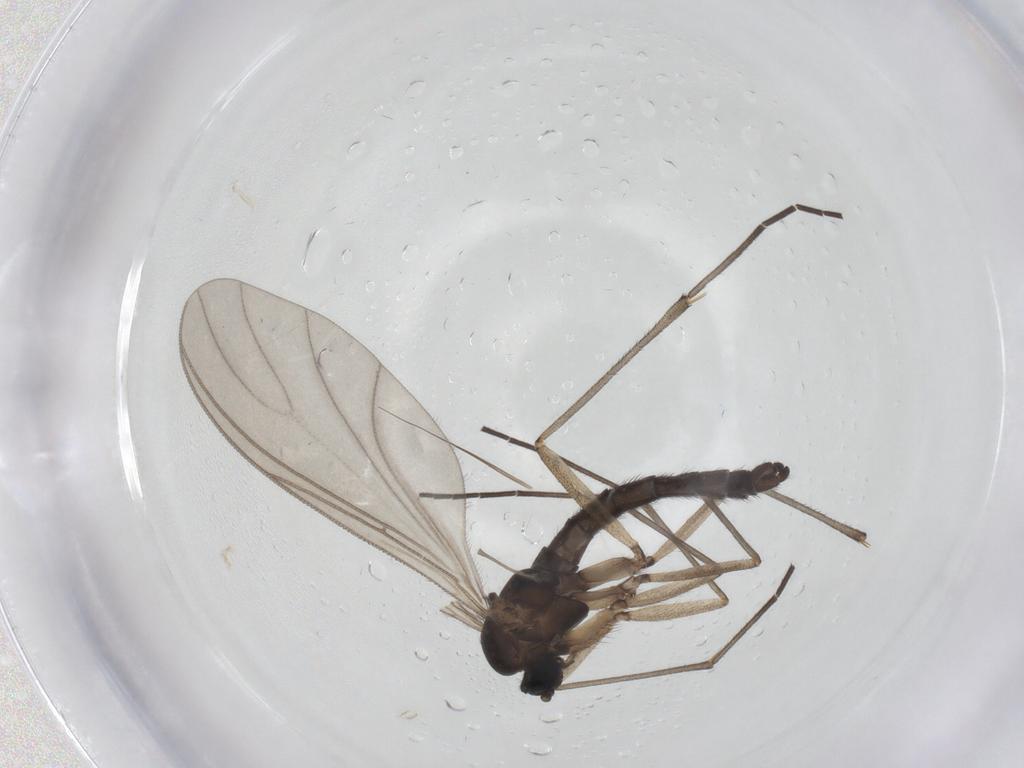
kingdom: Animalia
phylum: Arthropoda
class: Insecta
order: Diptera
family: Sciaridae
